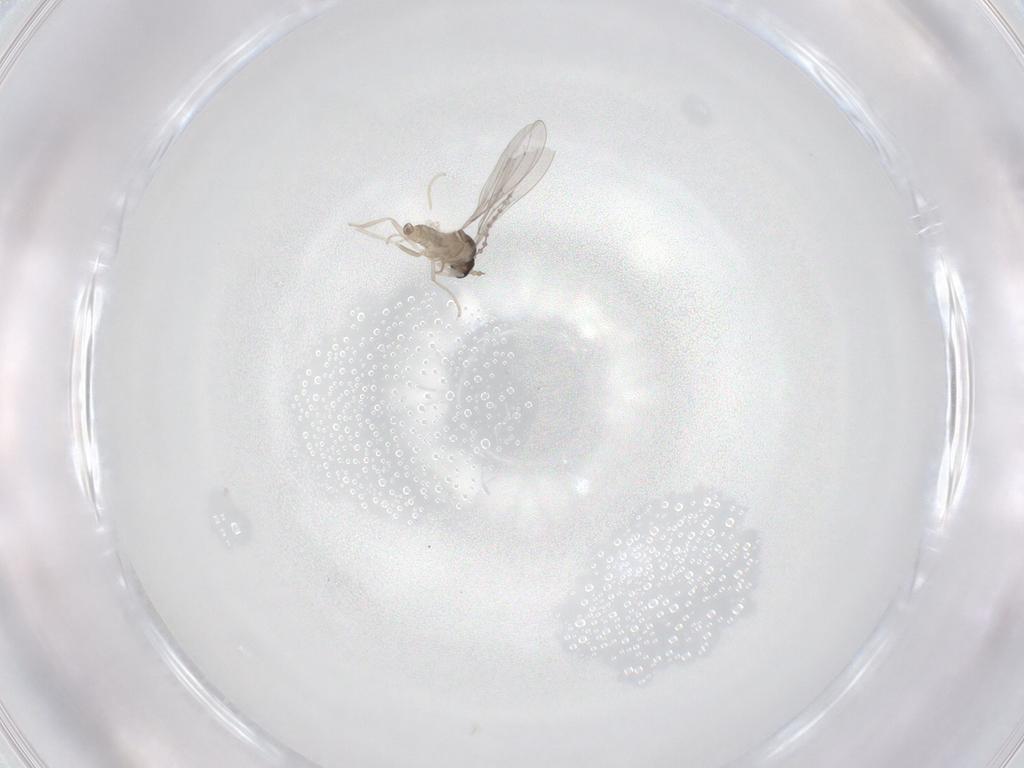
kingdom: Animalia
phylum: Arthropoda
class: Insecta
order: Diptera
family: Cecidomyiidae
